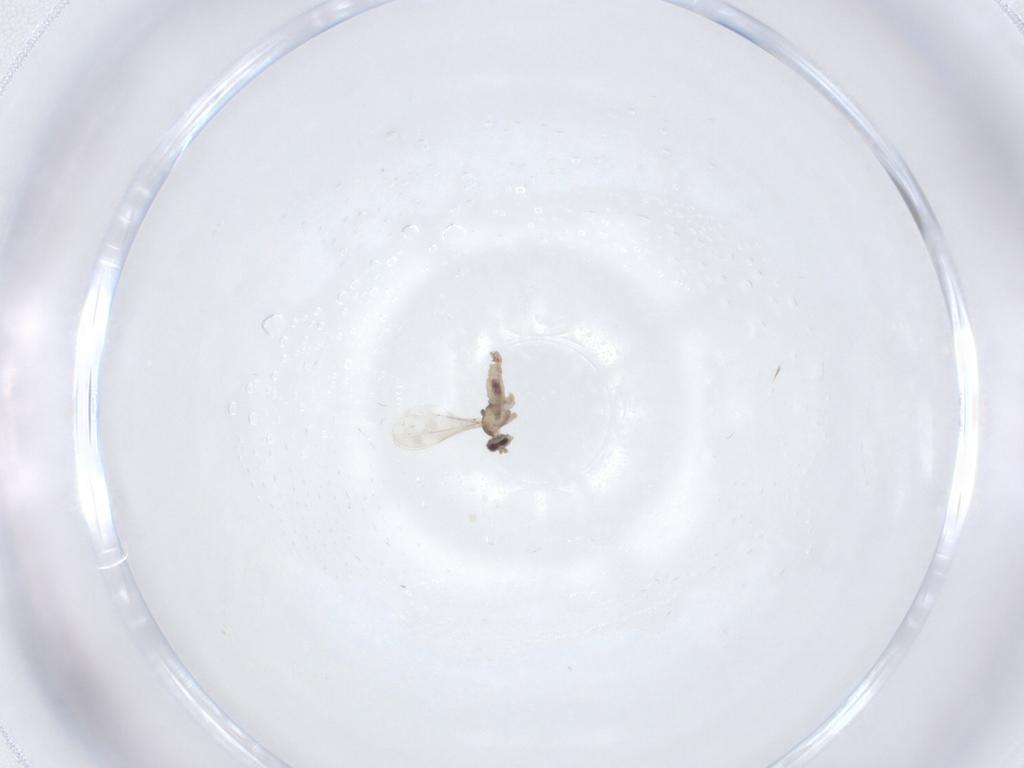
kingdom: Animalia
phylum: Arthropoda
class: Insecta
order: Diptera
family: Cecidomyiidae
